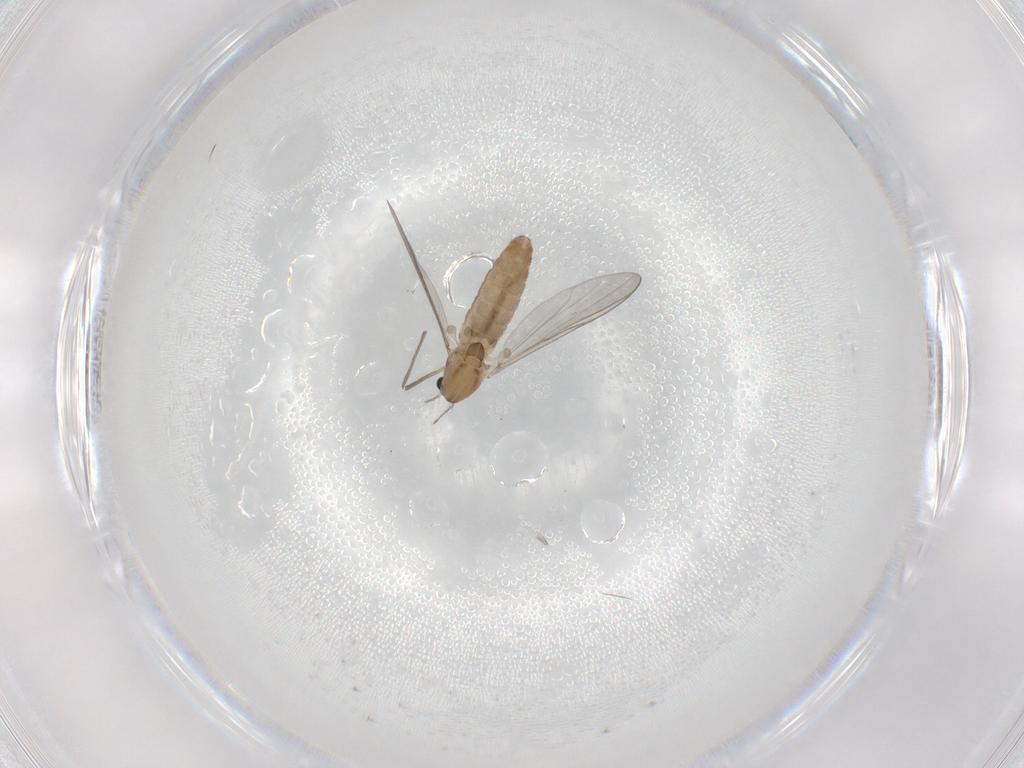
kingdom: Animalia
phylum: Arthropoda
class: Insecta
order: Diptera
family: Chironomidae
